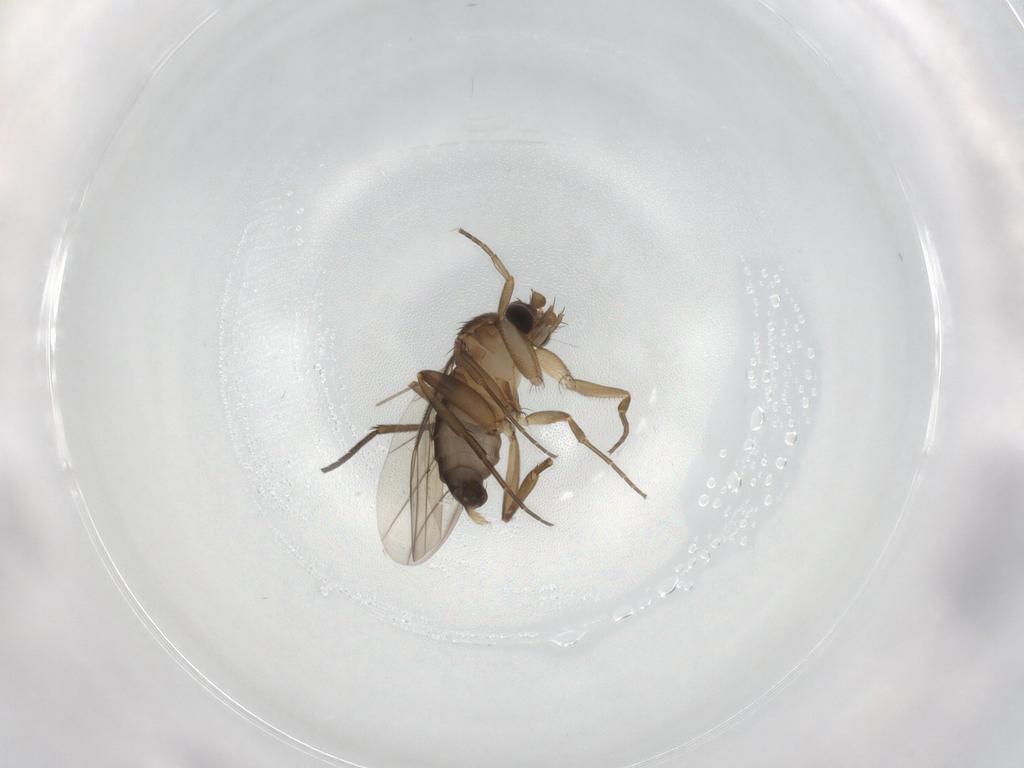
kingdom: Animalia
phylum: Arthropoda
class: Insecta
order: Diptera
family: Phoridae
